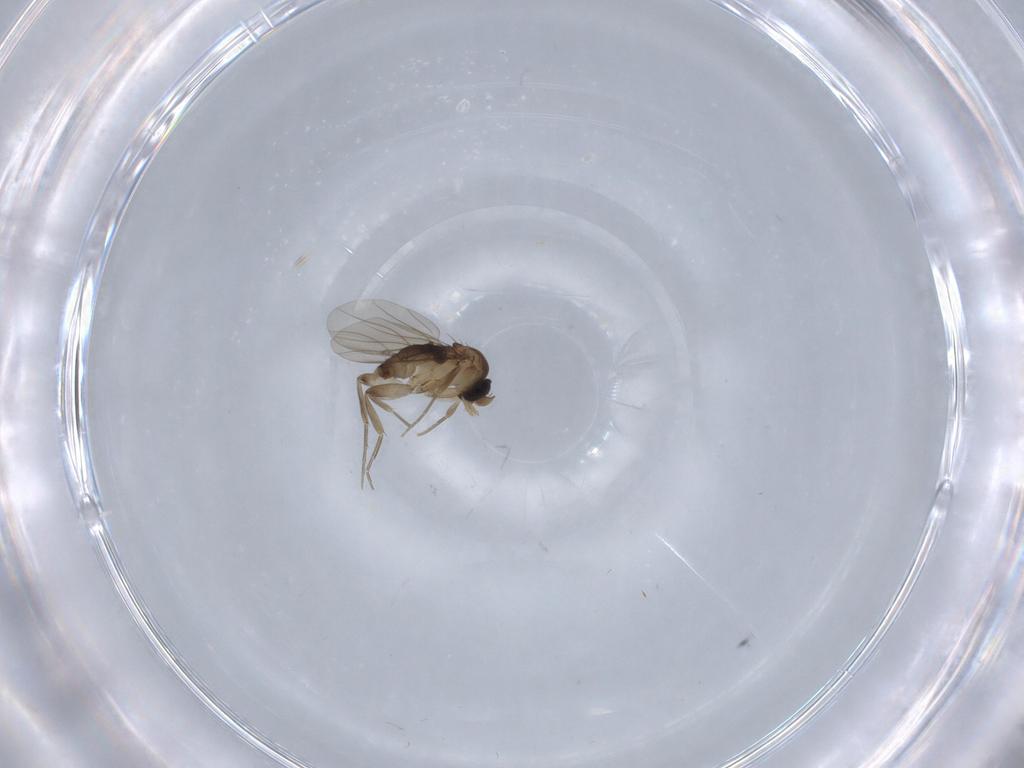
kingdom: Animalia
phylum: Arthropoda
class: Insecta
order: Diptera
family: Phoridae
